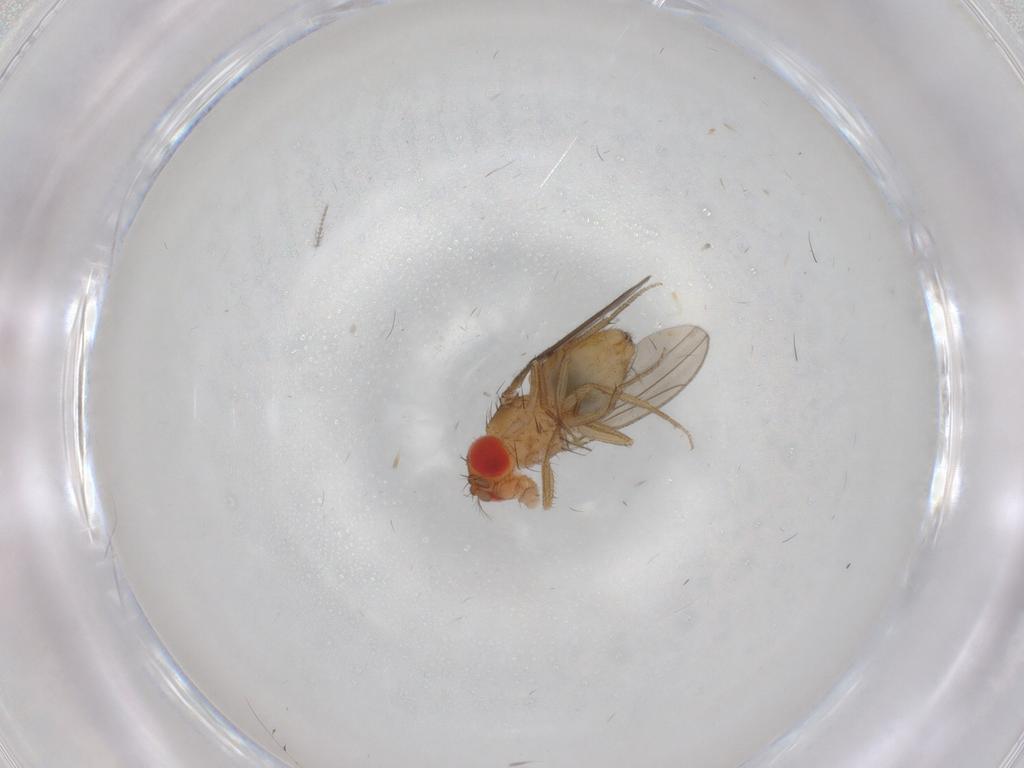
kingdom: Animalia
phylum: Arthropoda
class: Insecta
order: Diptera
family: Drosophilidae
